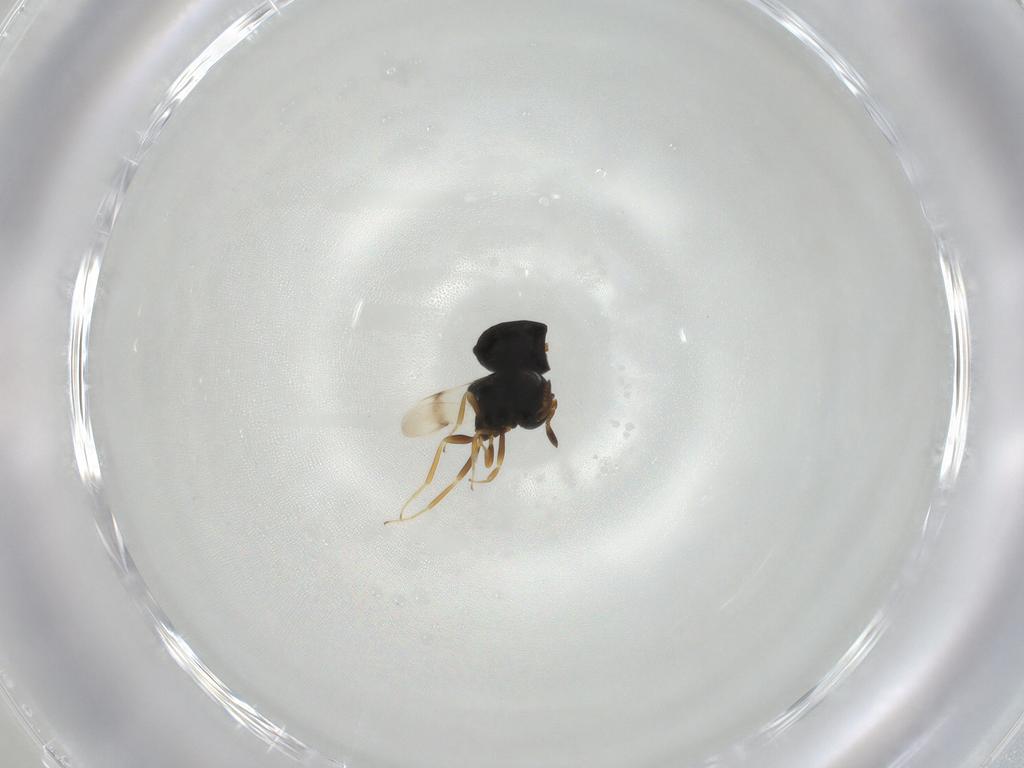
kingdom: Animalia
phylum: Arthropoda
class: Insecta
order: Hymenoptera
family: Scelionidae
